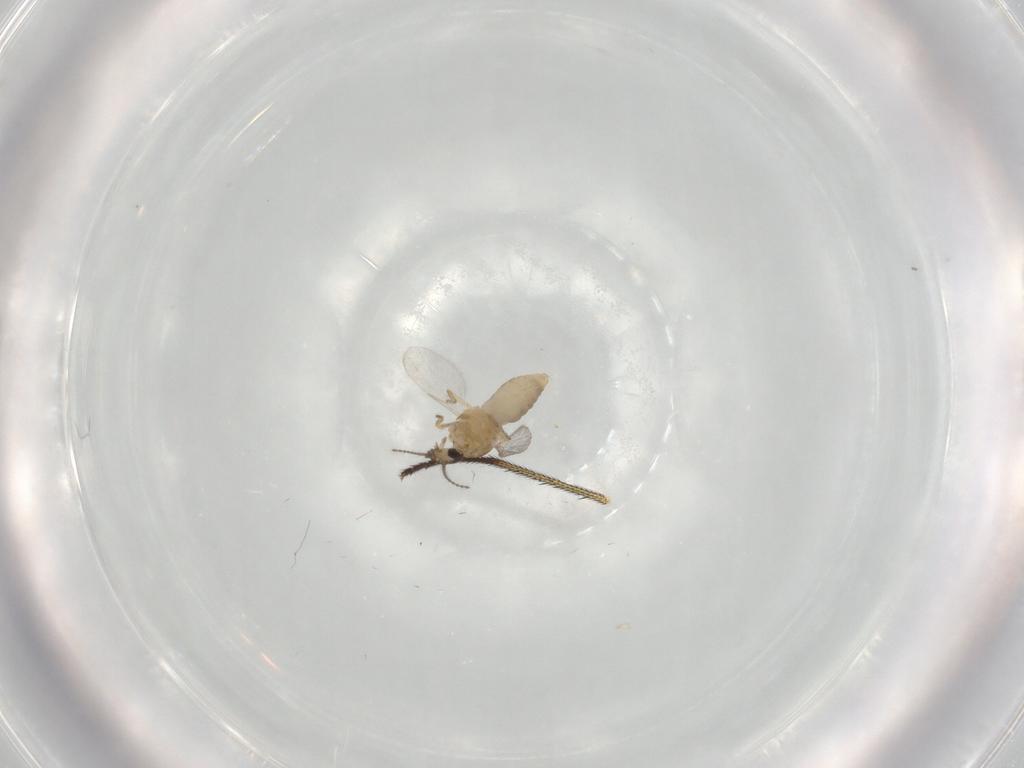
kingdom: Animalia
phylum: Arthropoda
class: Insecta
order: Diptera
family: Ceratopogonidae
